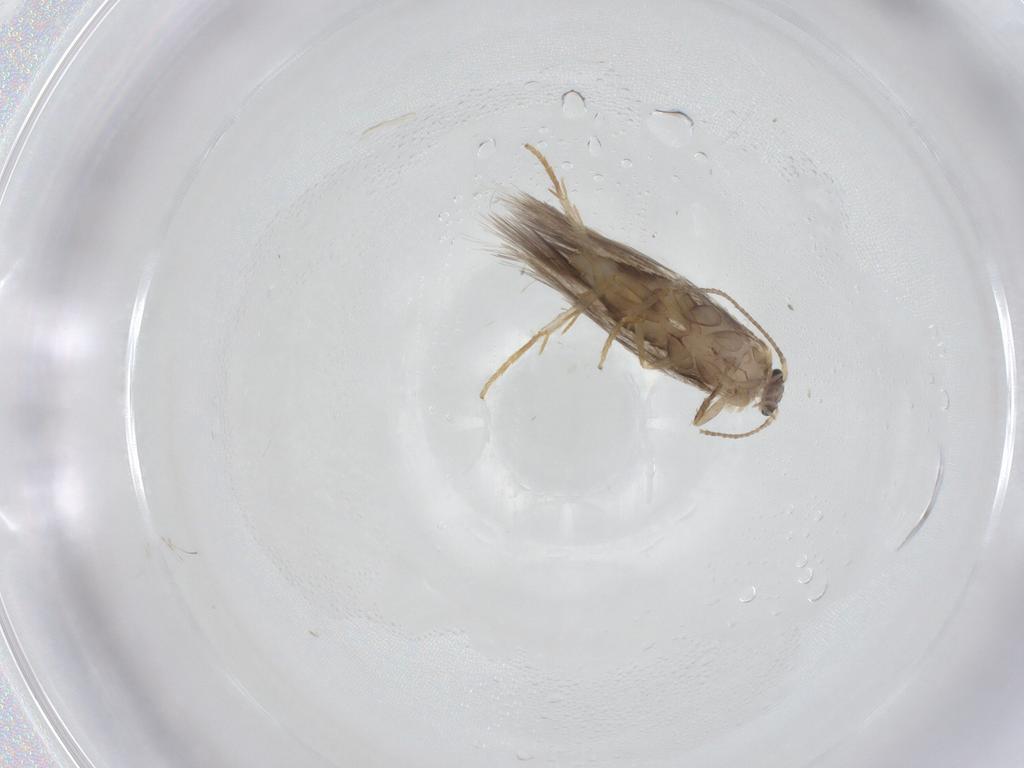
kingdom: Animalia
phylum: Arthropoda
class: Insecta
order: Lepidoptera
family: Nepticulidae
